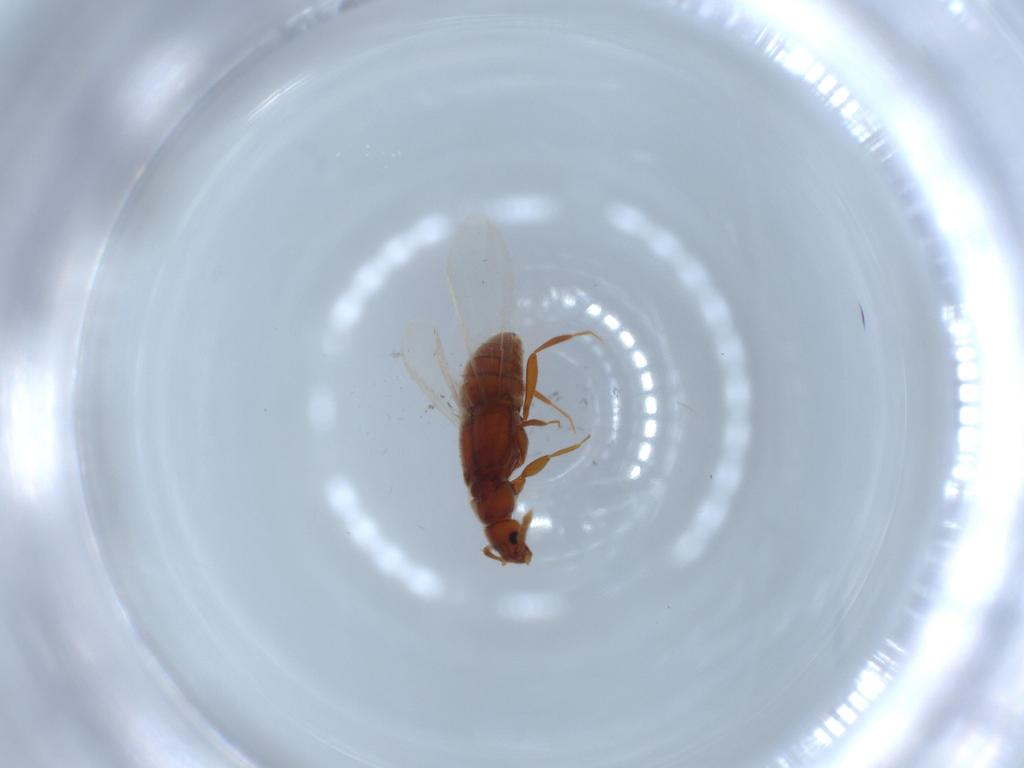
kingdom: Animalia
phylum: Arthropoda
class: Insecta
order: Coleoptera
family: Staphylinidae
